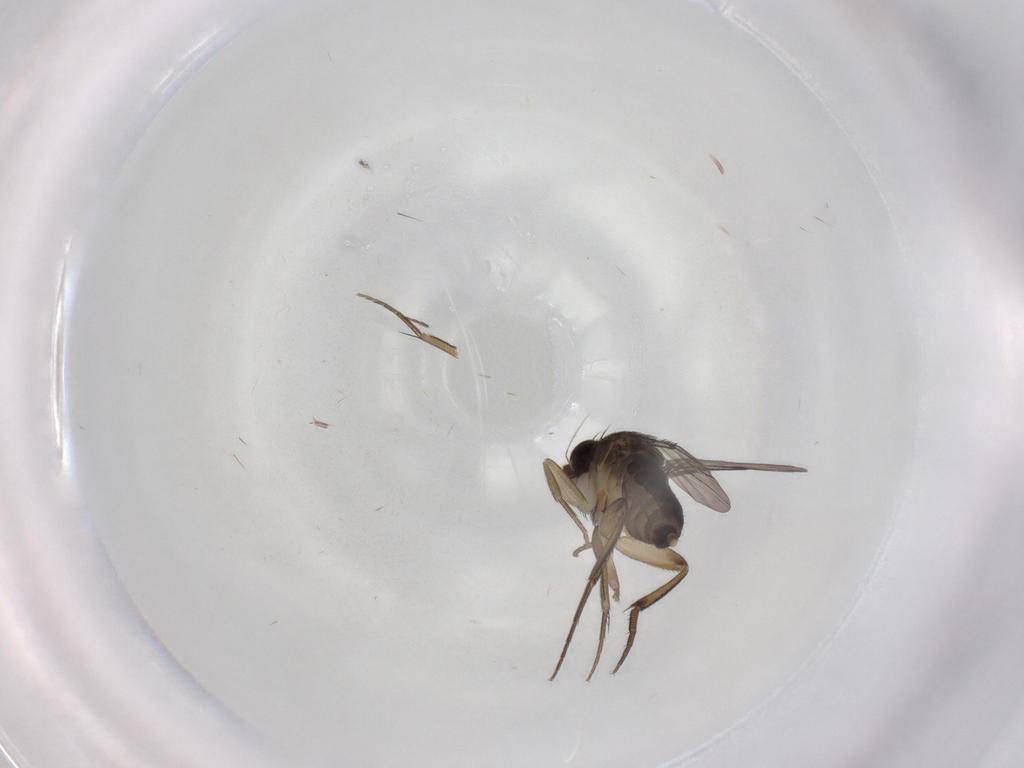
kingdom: Animalia
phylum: Arthropoda
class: Insecta
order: Diptera
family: Phoridae
